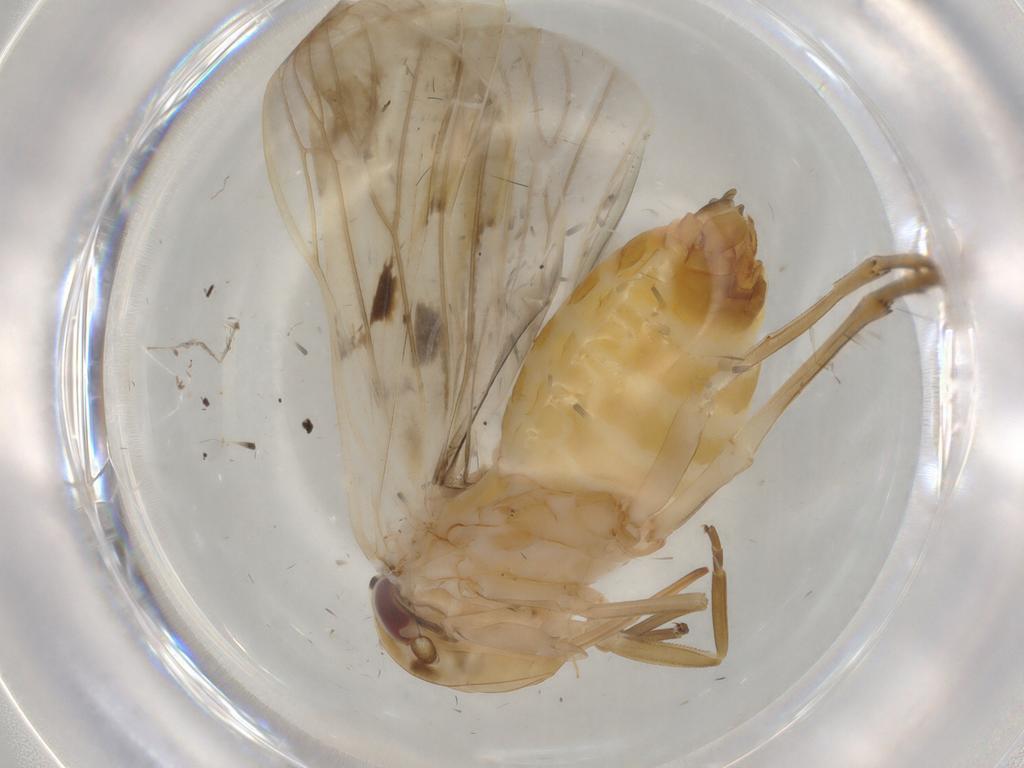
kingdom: Animalia
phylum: Arthropoda
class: Insecta
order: Hemiptera
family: Achilidae
